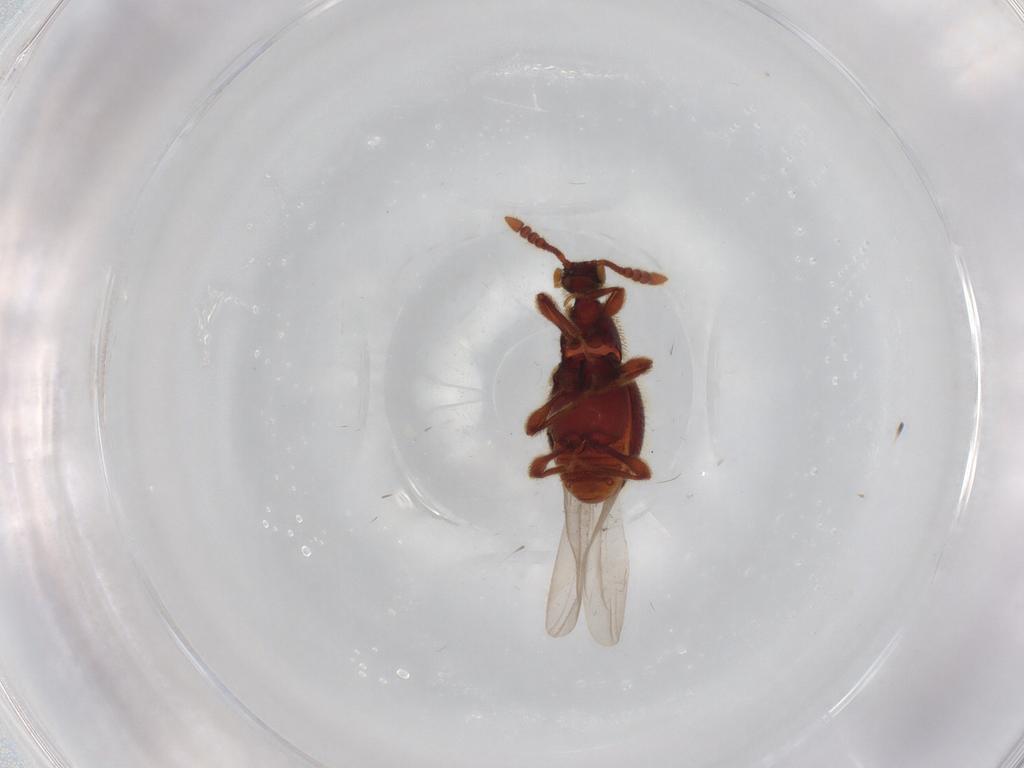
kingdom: Animalia
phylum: Arthropoda
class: Insecta
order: Coleoptera
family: Staphylinidae
